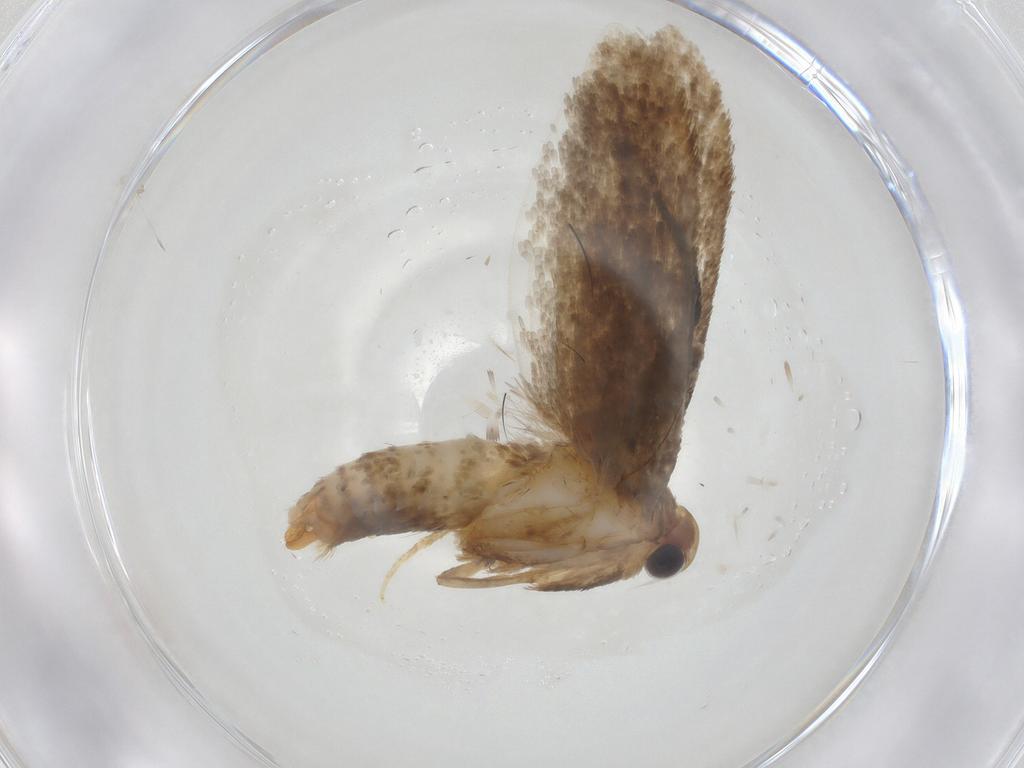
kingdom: Animalia
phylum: Arthropoda
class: Insecta
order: Lepidoptera
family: Tineidae
